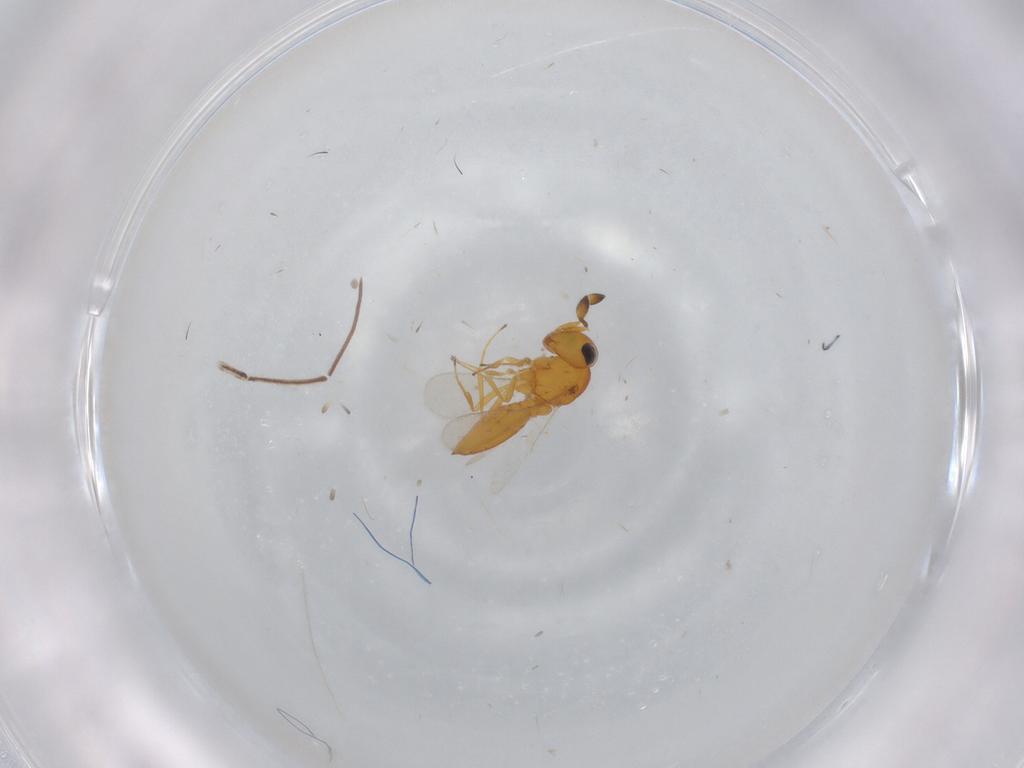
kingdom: Animalia
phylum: Arthropoda
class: Insecta
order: Hymenoptera
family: Scelionidae
